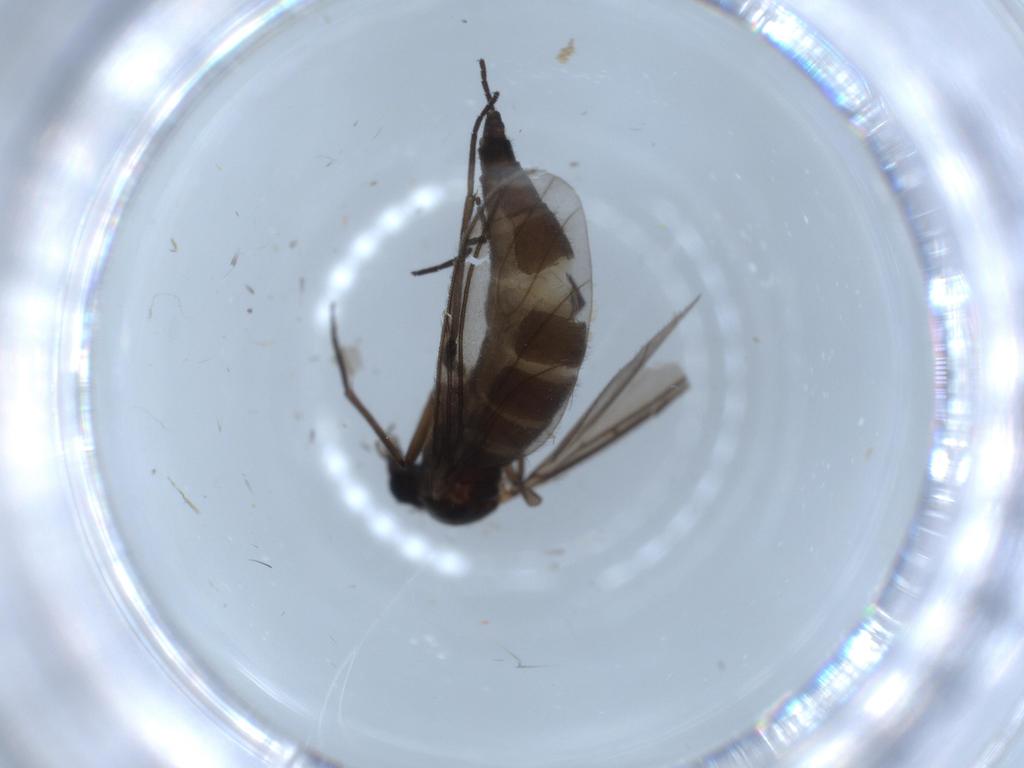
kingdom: Animalia
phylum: Arthropoda
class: Insecta
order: Diptera
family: Sciaridae
